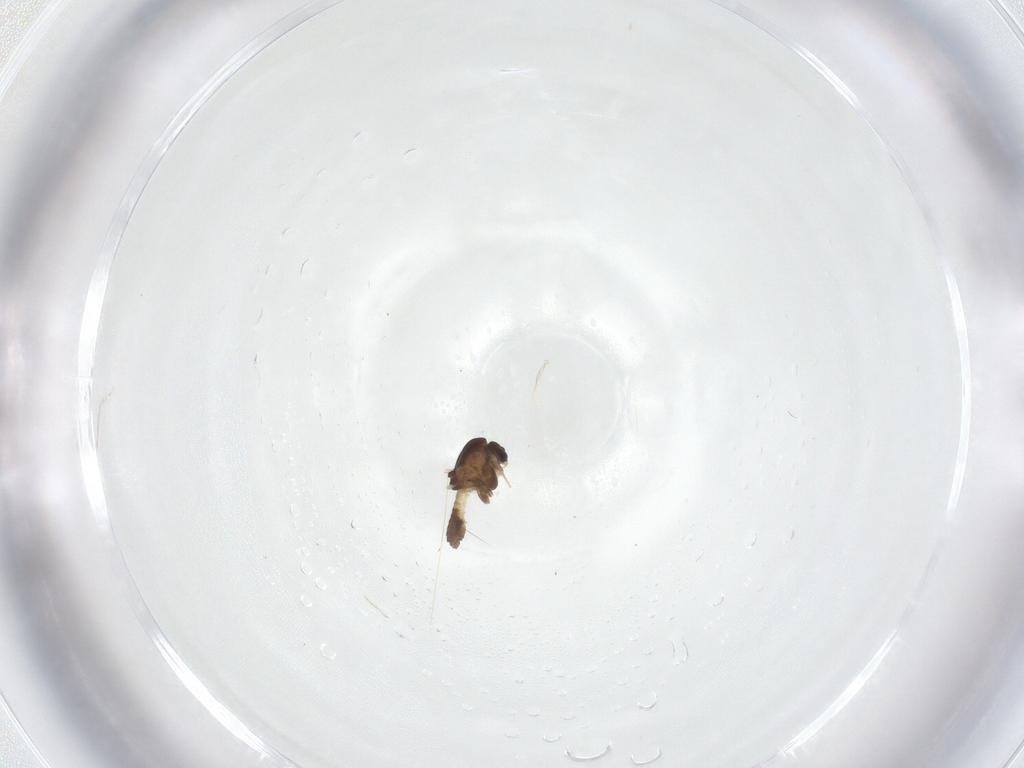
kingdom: Animalia
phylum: Arthropoda
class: Insecta
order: Diptera
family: Chironomidae
